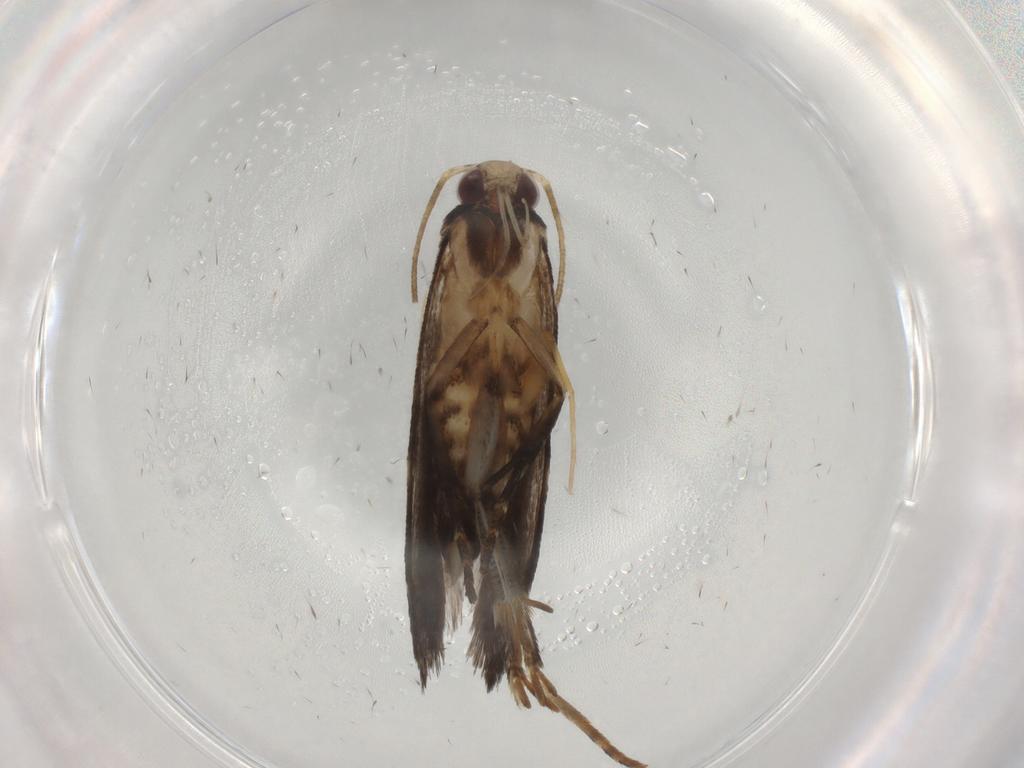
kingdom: Animalia
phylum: Arthropoda
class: Insecta
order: Lepidoptera
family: Gelechiidae
